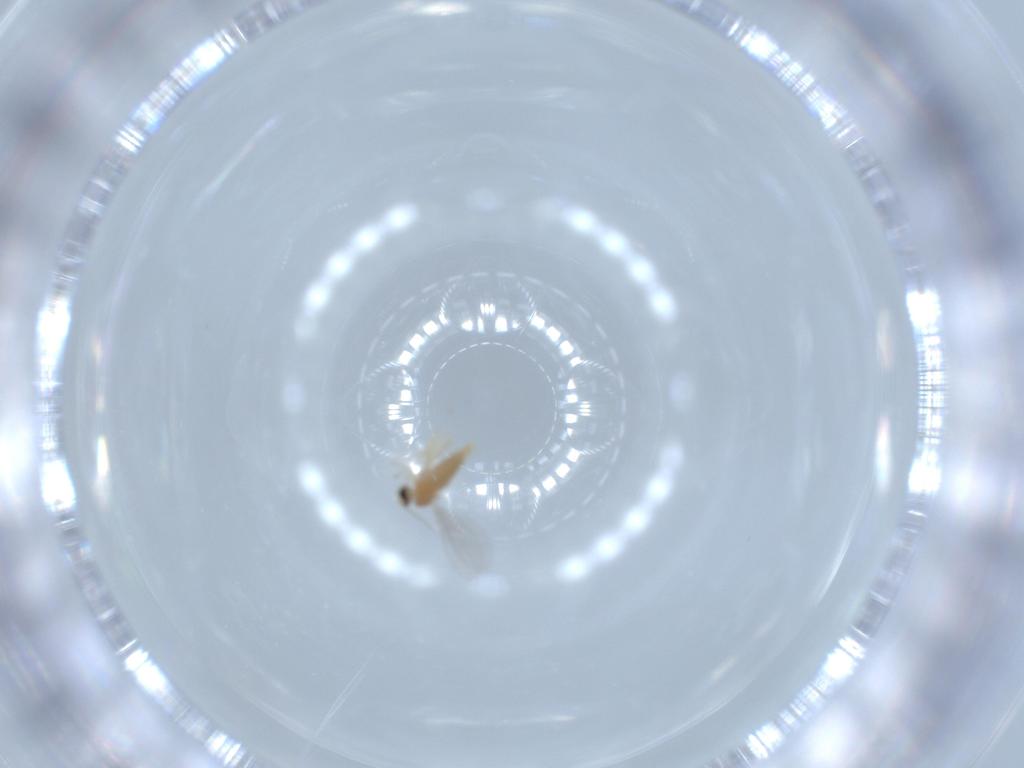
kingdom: Animalia
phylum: Arthropoda
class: Insecta
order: Diptera
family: Cecidomyiidae
